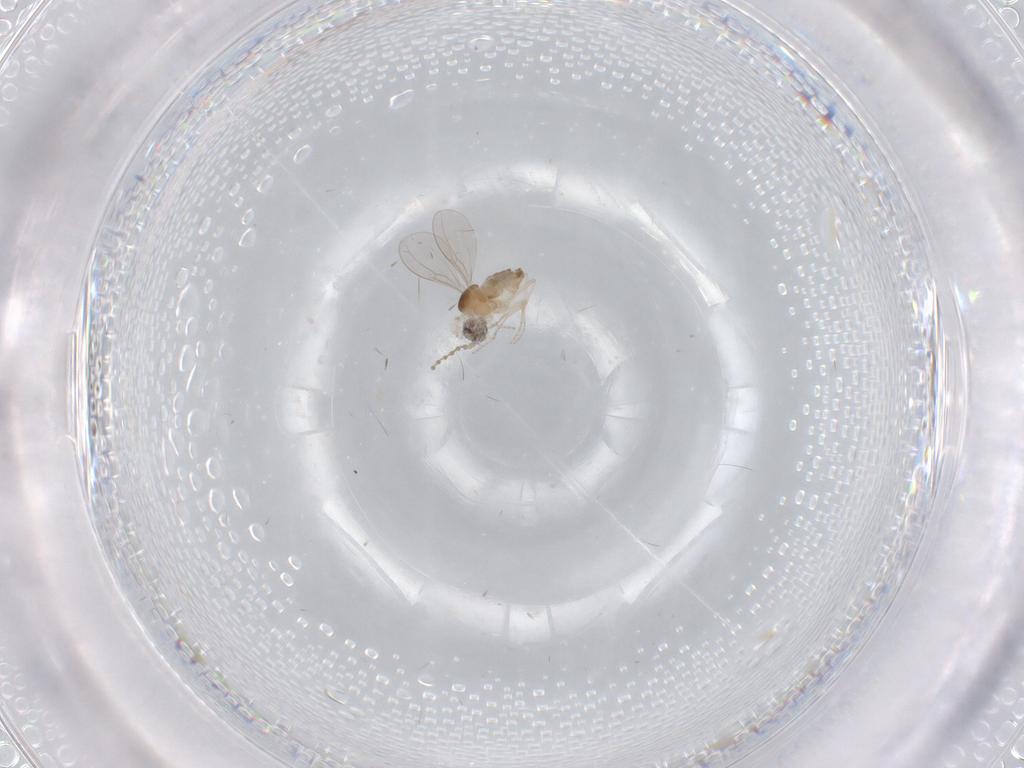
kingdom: Animalia
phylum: Arthropoda
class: Insecta
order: Diptera
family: Cecidomyiidae
